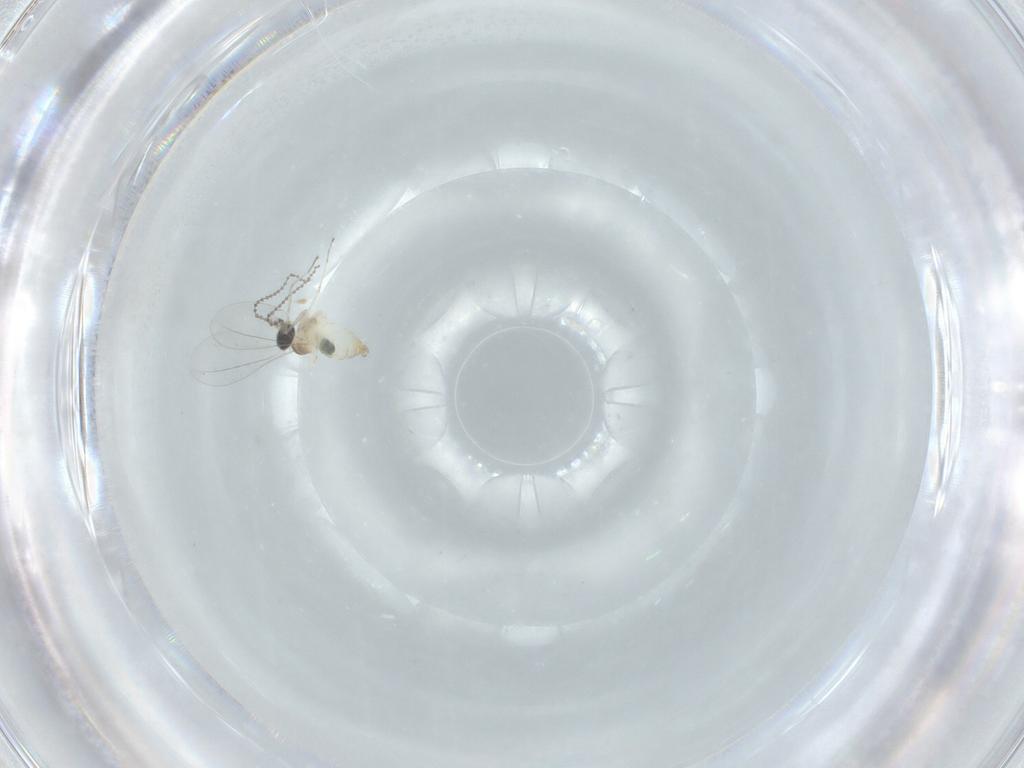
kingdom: Animalia
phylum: Arthropoda
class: Insecta
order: Diptera
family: Cecidomyiidae
